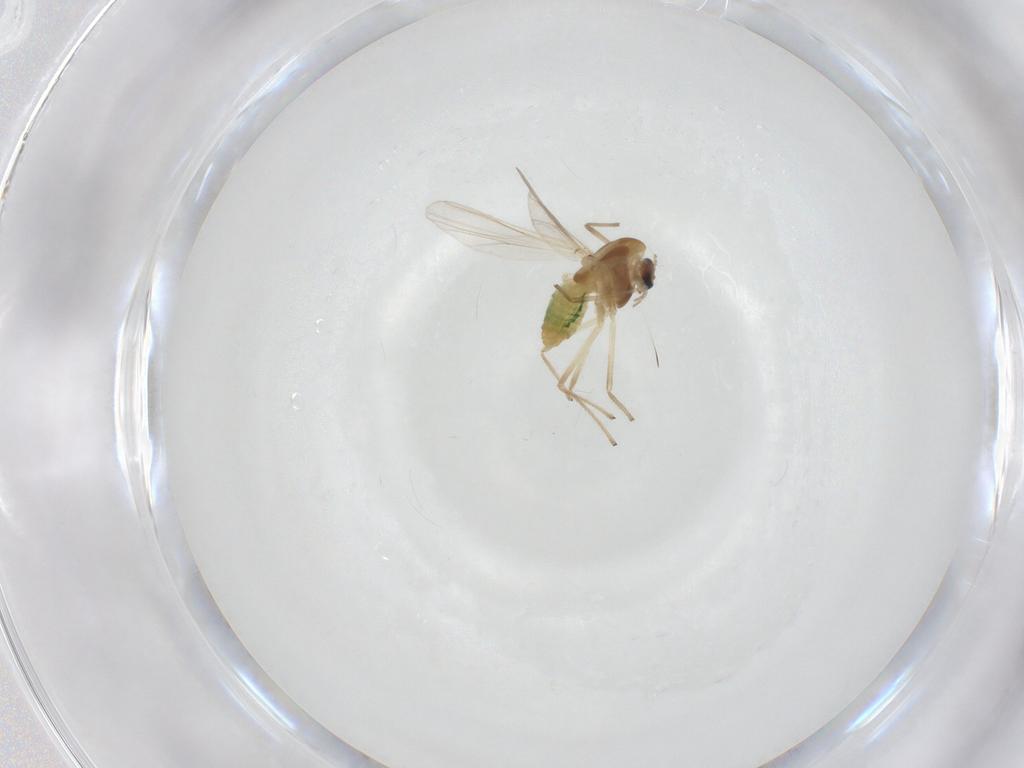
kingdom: Animalia
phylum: Arthropoda
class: Insecta
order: Diptera
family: Chironomidae
